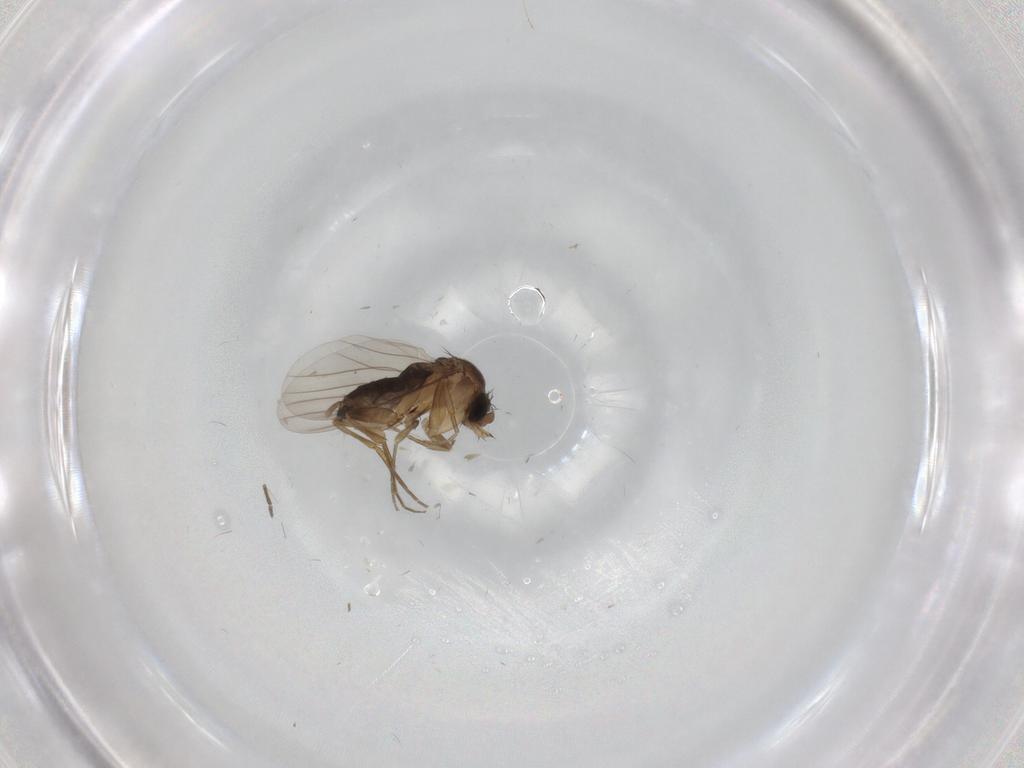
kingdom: Animalia
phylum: Arthropoda
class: Insecta
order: Diptera
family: Phoridae
